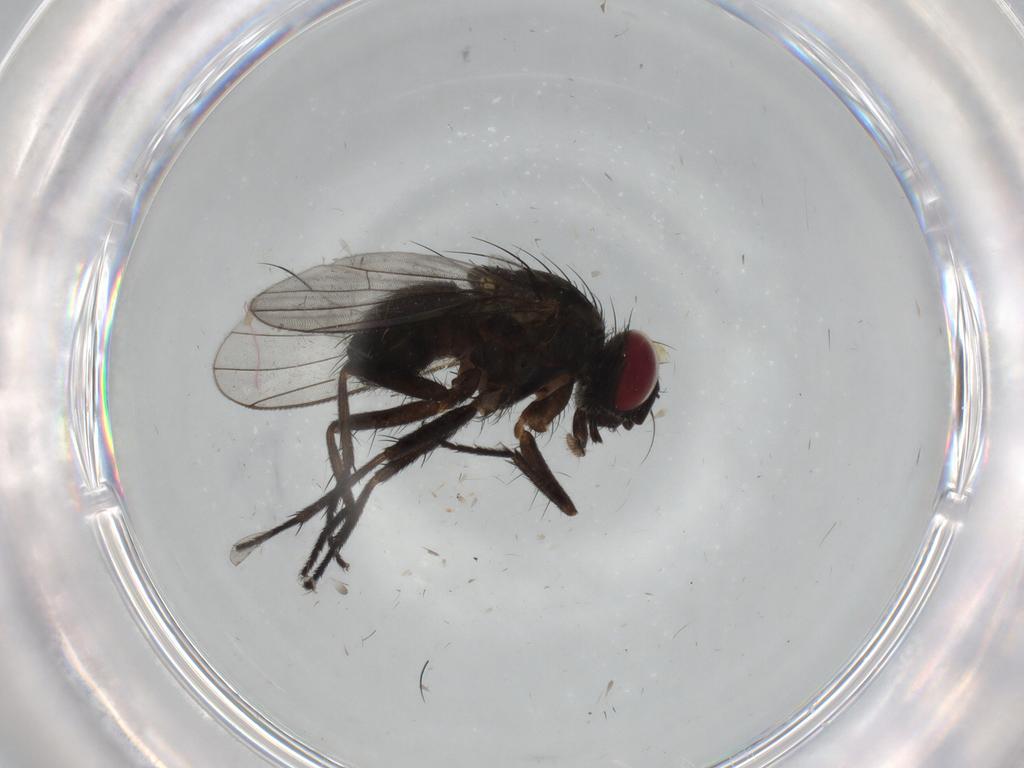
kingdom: Animalia
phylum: Arthropoda
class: Insecta
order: Diptera
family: Muscidae
